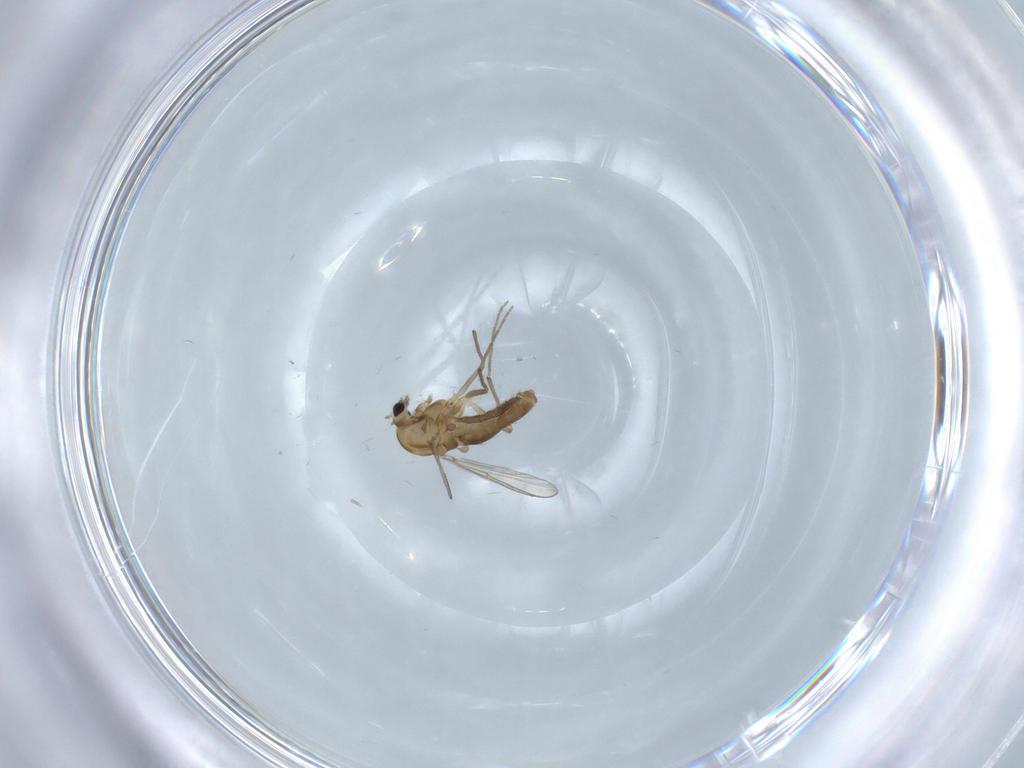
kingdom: Animalia
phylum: Arthropoda
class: Insecta
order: Diptera
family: Chironomidae
